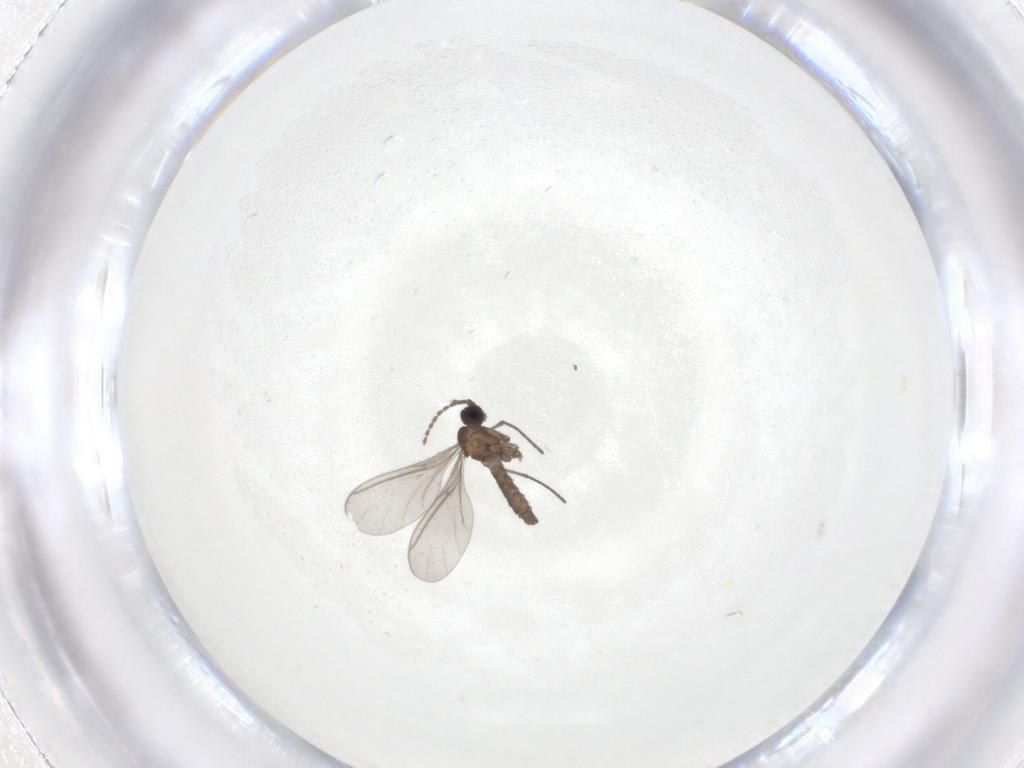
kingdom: Animalia
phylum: Arthropoda
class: Insecta
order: Diptera
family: Sciaridae
